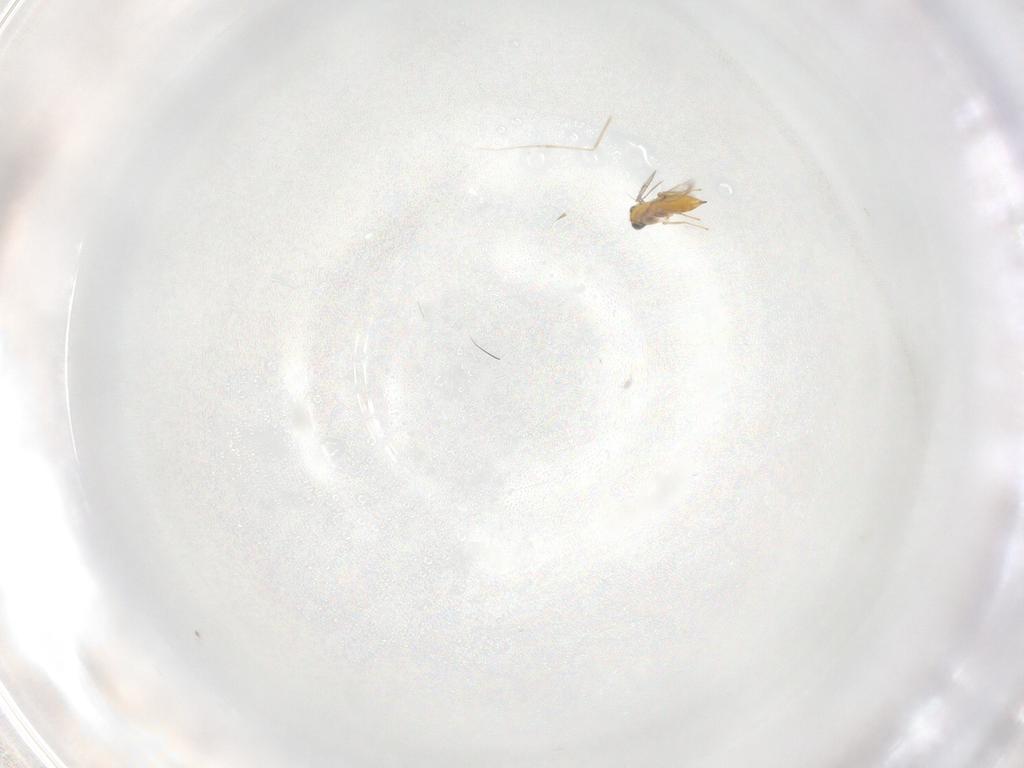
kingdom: Animalia
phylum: Arthropoda
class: Insecta
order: Hymenoptera
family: Trichogrammatidae
